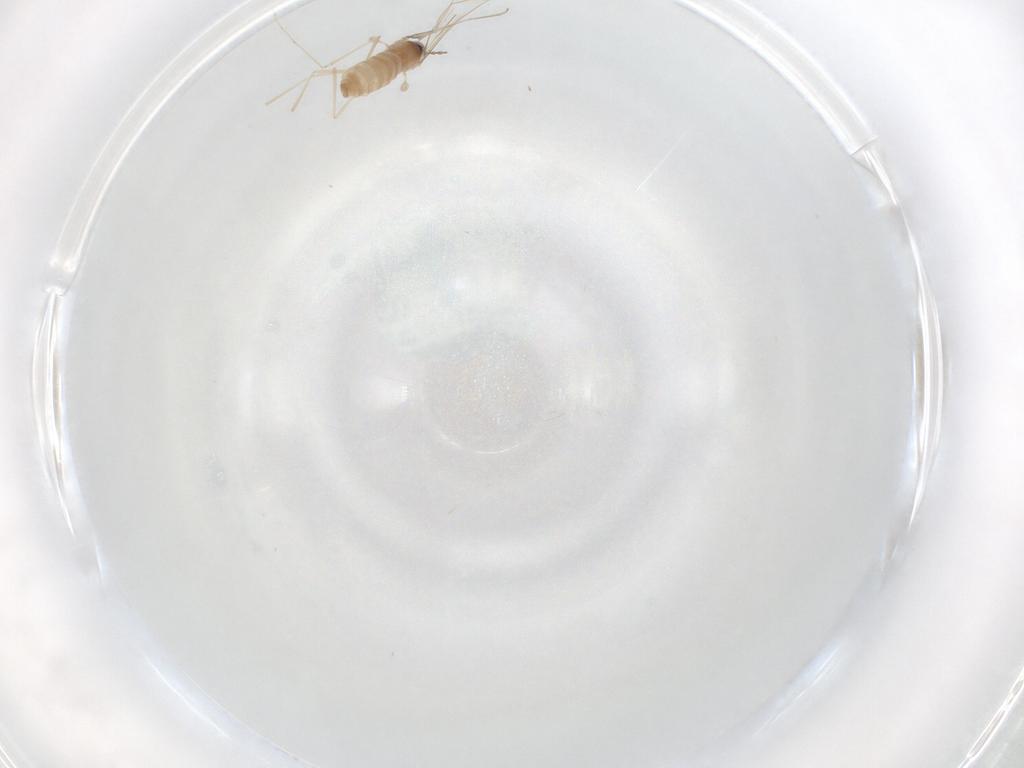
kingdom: Animalia
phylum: Arthropoda
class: Insecta
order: Diptera
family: Cecidomyiidae
